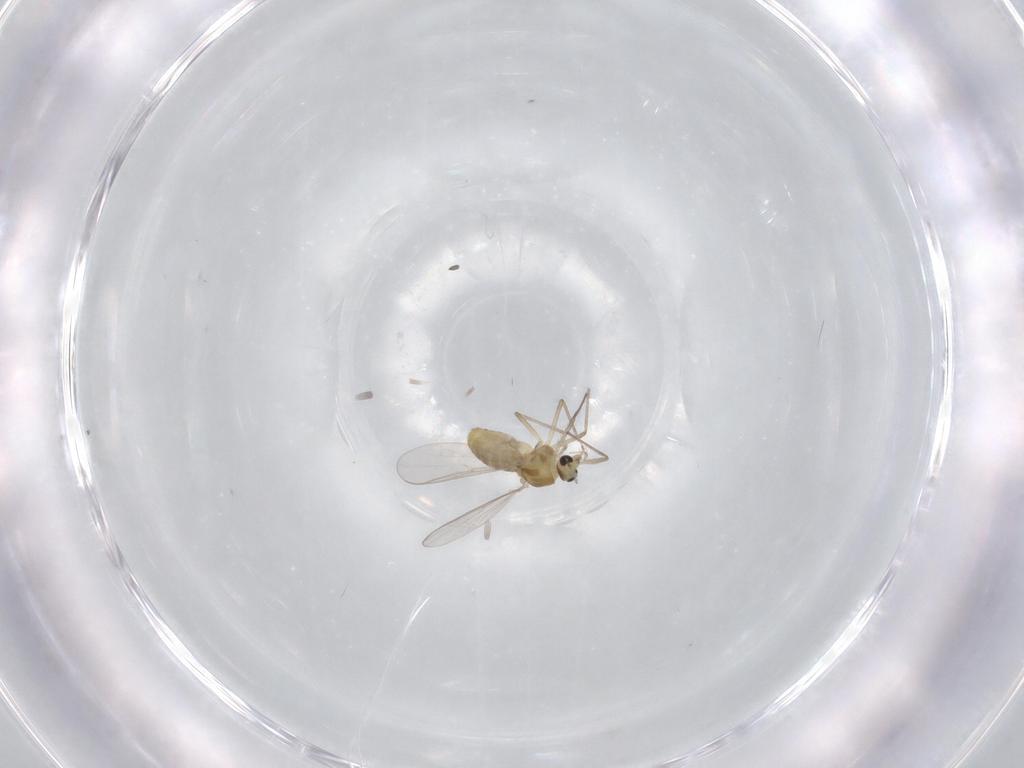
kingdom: Animalia
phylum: Arthropoda
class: Insecta
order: Diptera
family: Chironomidae
